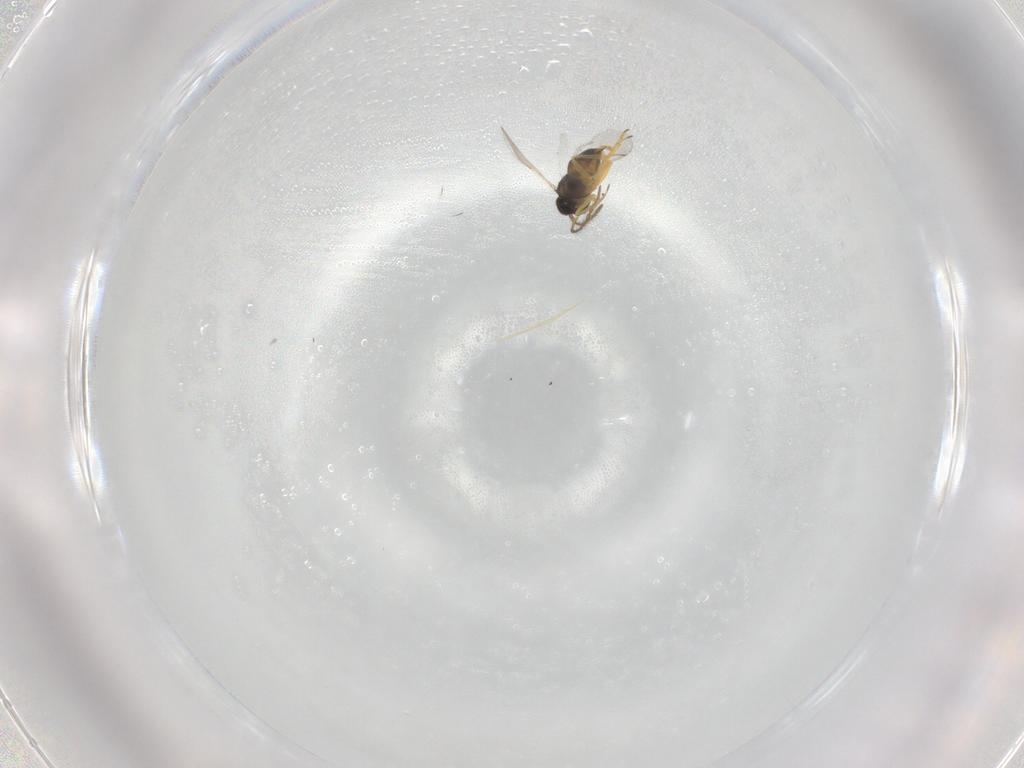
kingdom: Animalia
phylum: Arthropoda
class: Insecta
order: Hymenoptera
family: Encyrtidae
